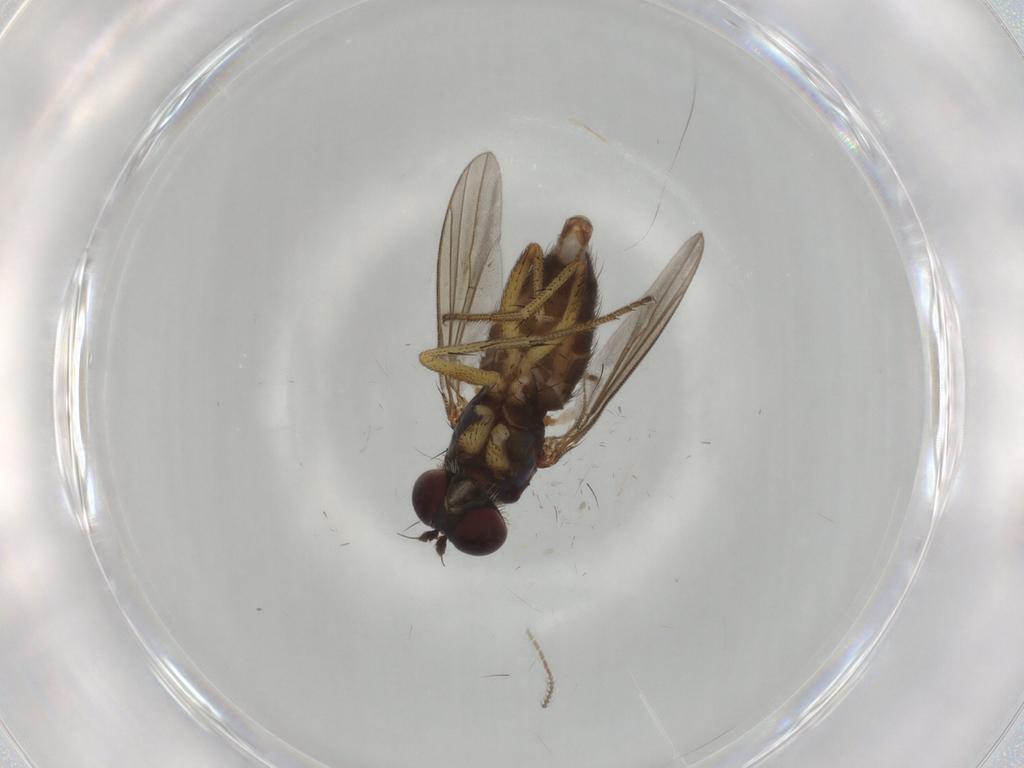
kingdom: Animalia
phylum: Arthropoda
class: Insecta
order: Diptera
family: Dolichopodidae
